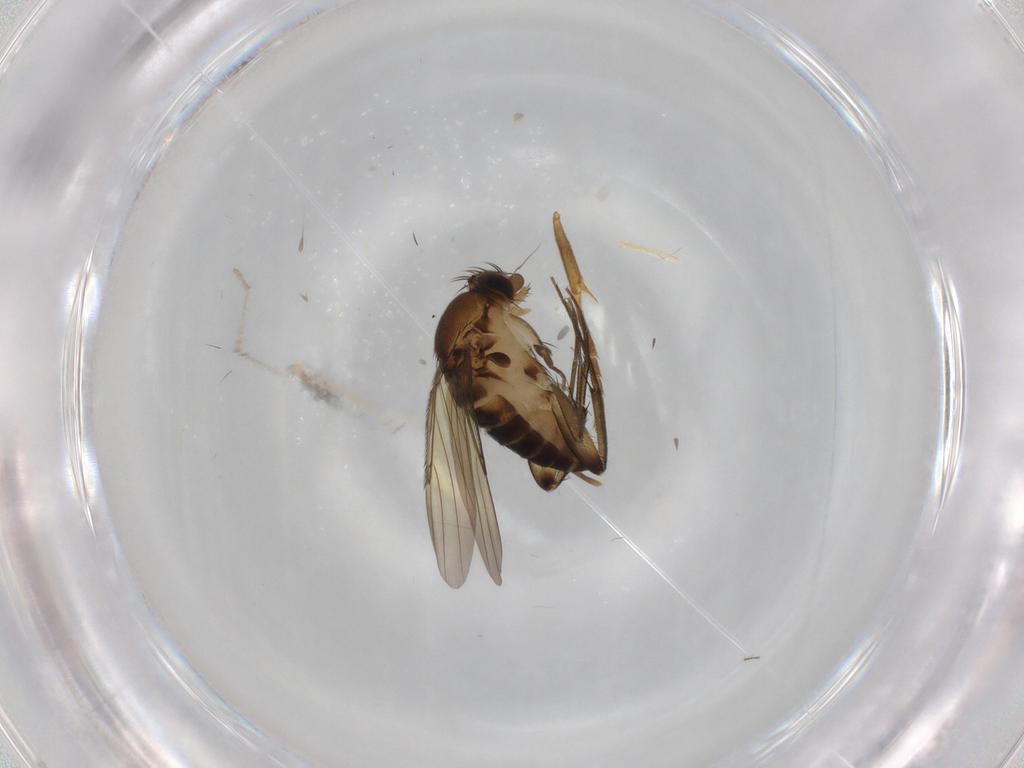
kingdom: Animalia
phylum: Arthropoda
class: Insecta
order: Diptera
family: Phoridae
